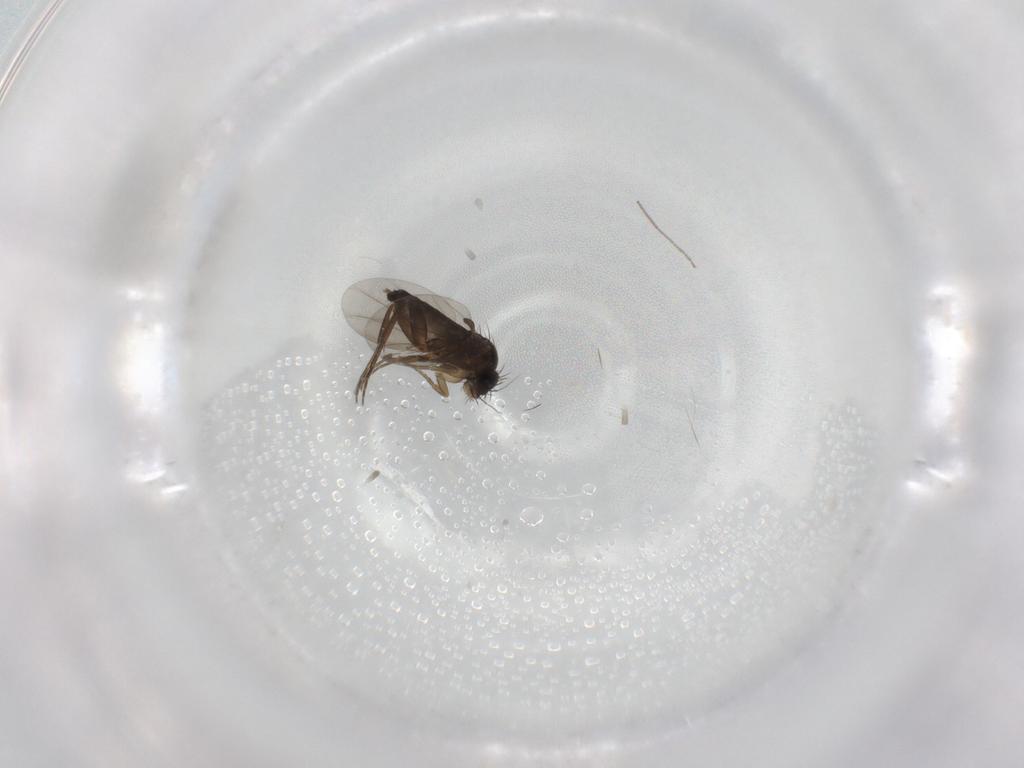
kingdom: Animalia
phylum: Arthropoda
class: Insecta
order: Diptera
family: Phoridae
